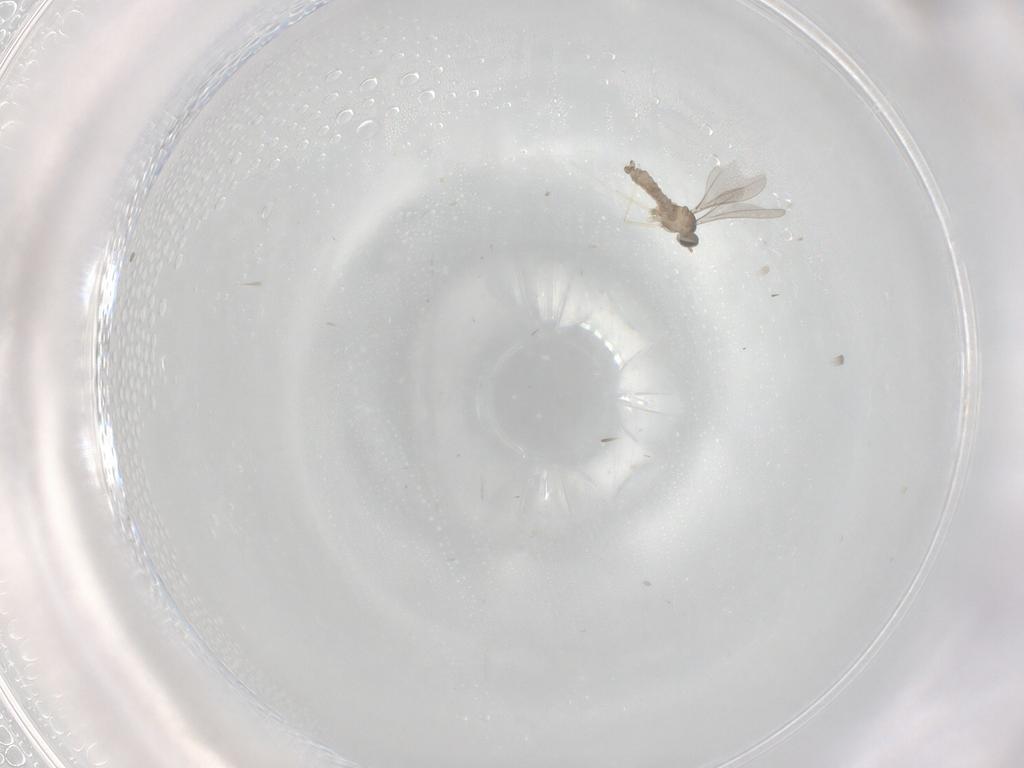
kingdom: Animalia
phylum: Arthropoda
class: Insecta
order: Diptera
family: Cecidomyiidae
